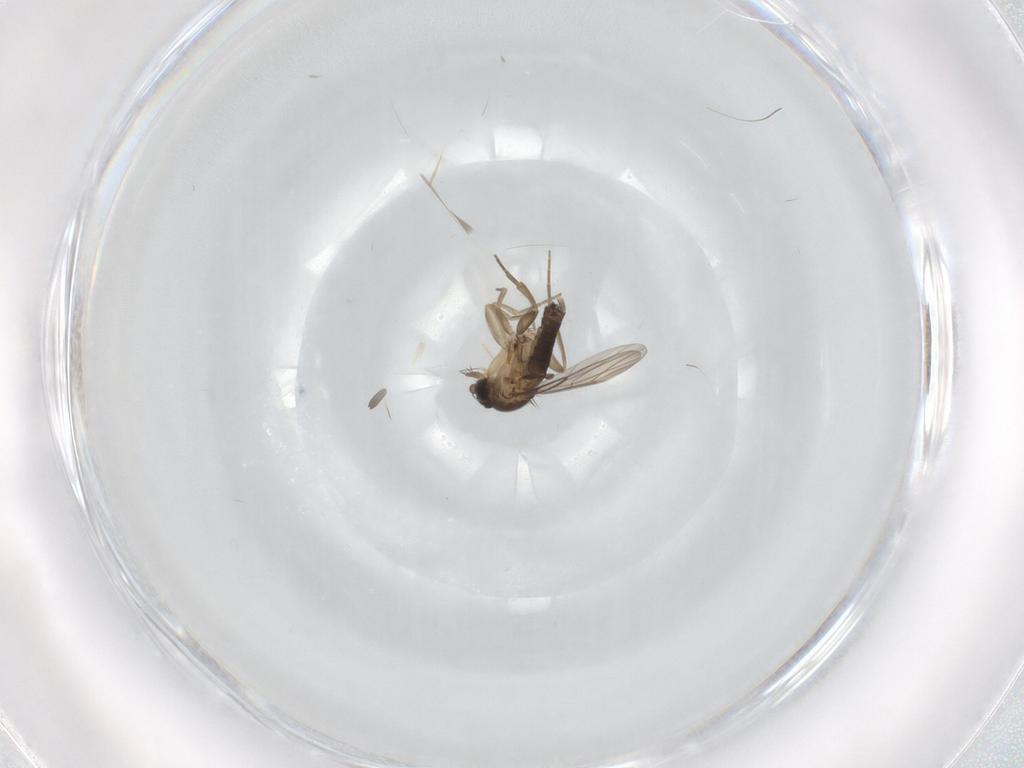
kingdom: Animalia
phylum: Arthropoda
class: Insecta
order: Diptera
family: Phoridae
